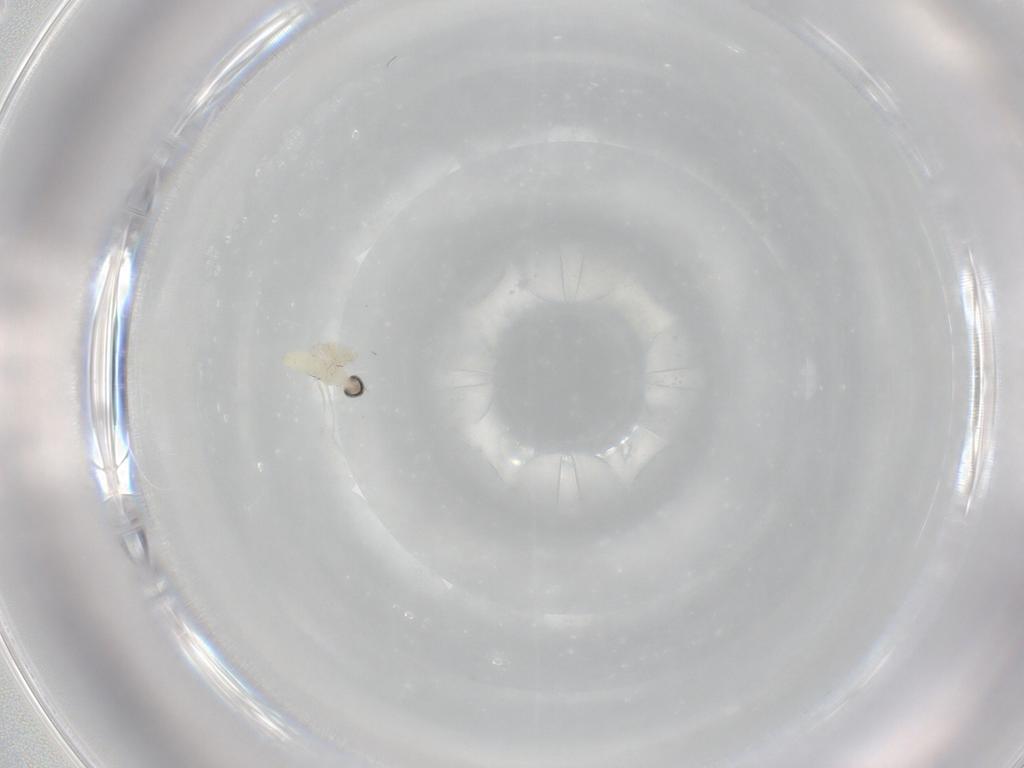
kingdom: Animalia
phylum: Arthropoda
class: Insecta
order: Diptera
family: Cecidomyiidae
